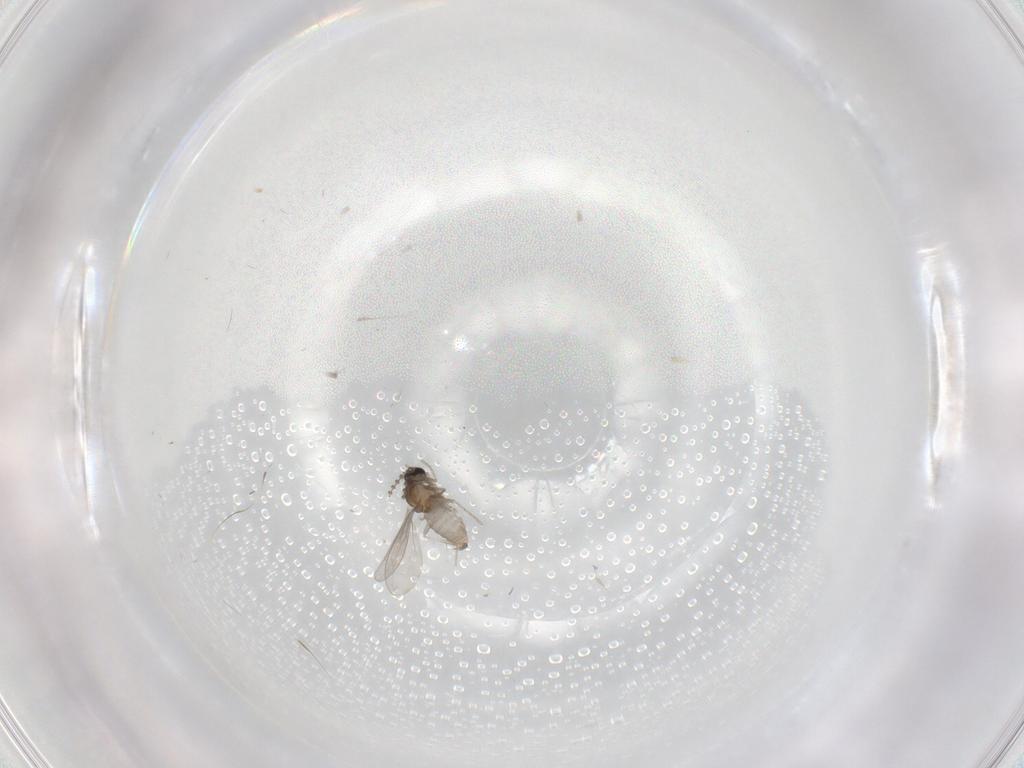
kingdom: Animalia
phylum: Arthropoda
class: Insecta
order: Diptera
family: Cecidomyiidae
